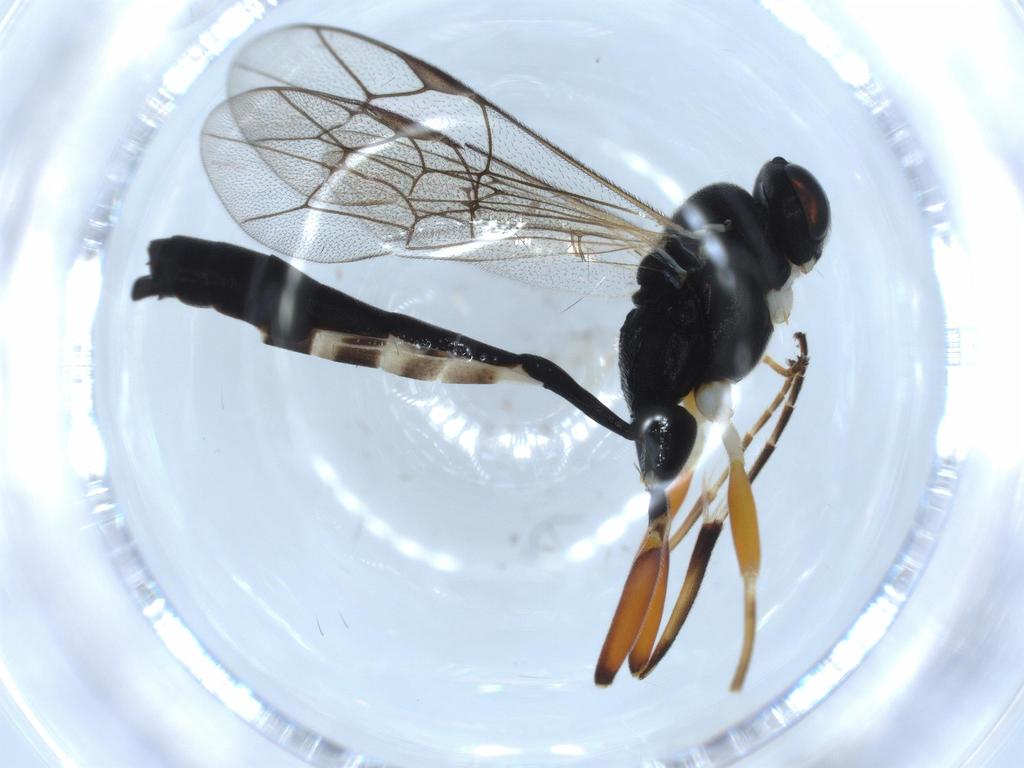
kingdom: Animalia
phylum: Arthropoda
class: Insecta
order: Hymenoptera
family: Ichneumonidae
